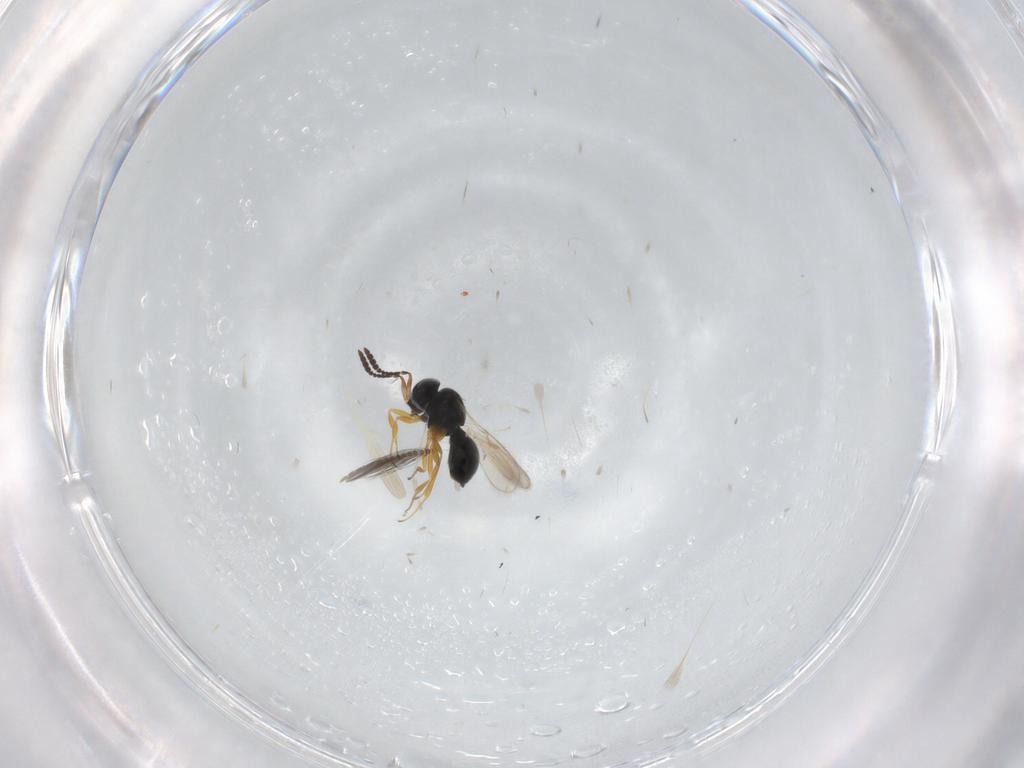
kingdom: Animalia
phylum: Arthropoda
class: Insecta
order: Hymenoptera
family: Scelionidae
